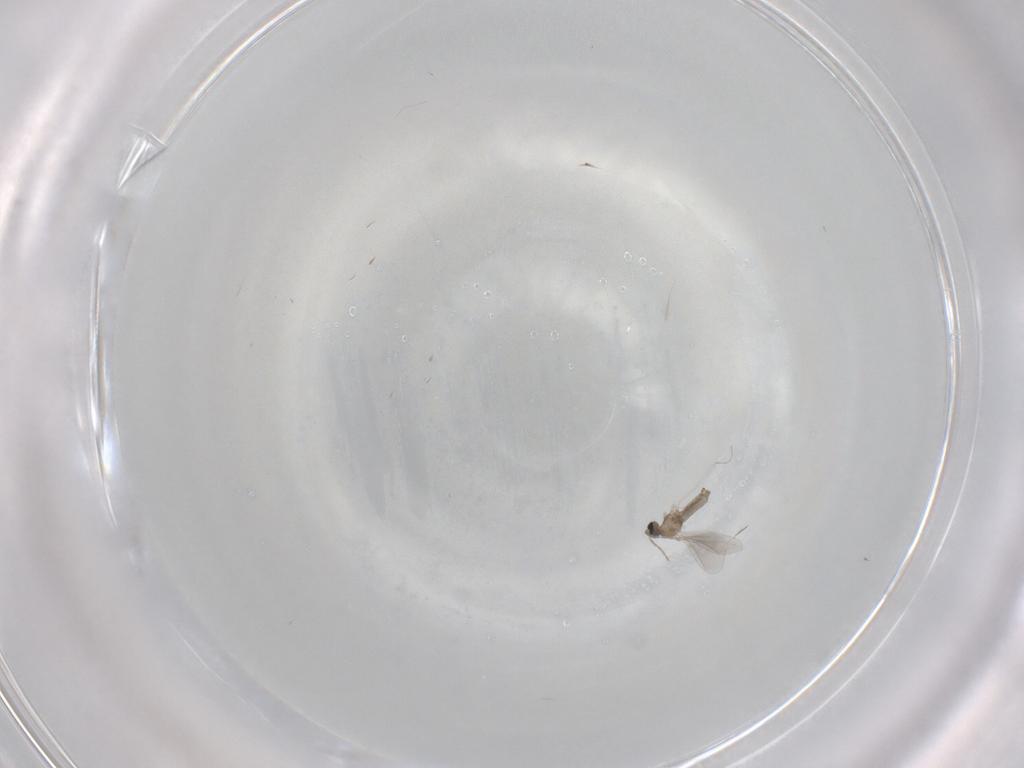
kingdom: Animalia
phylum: Arthropoda
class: Insecta
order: Diptera
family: Cecidomyiidae
